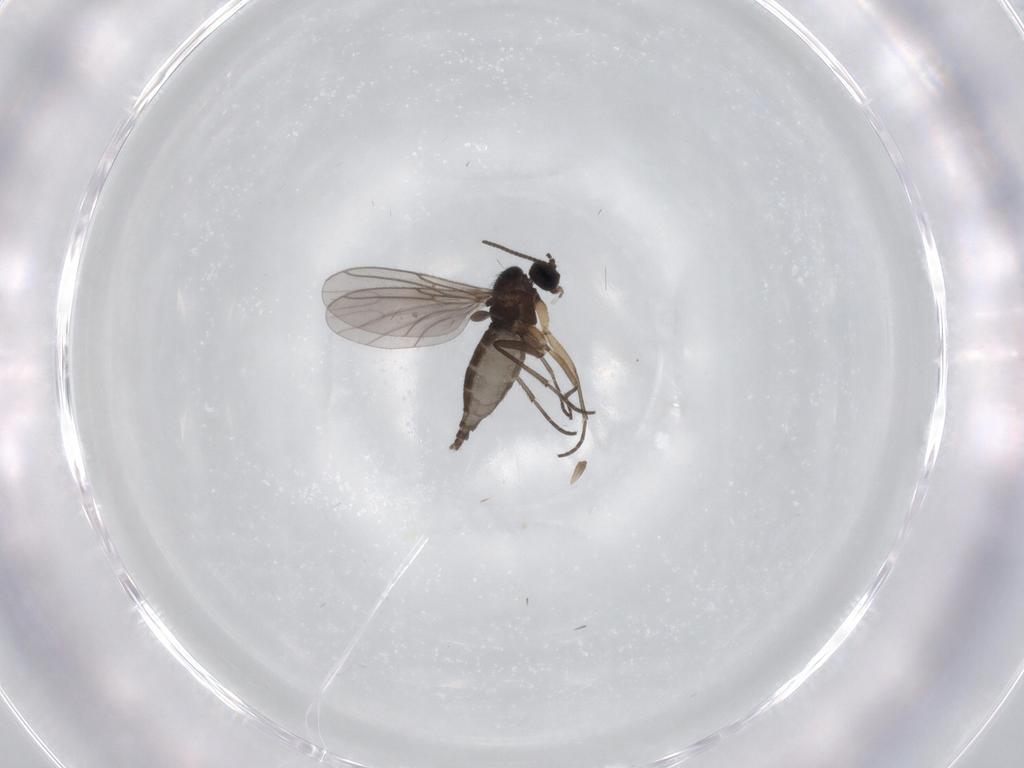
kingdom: Animalia
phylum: Arthropoda
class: Insecta
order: Diptera
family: Sciaridae
